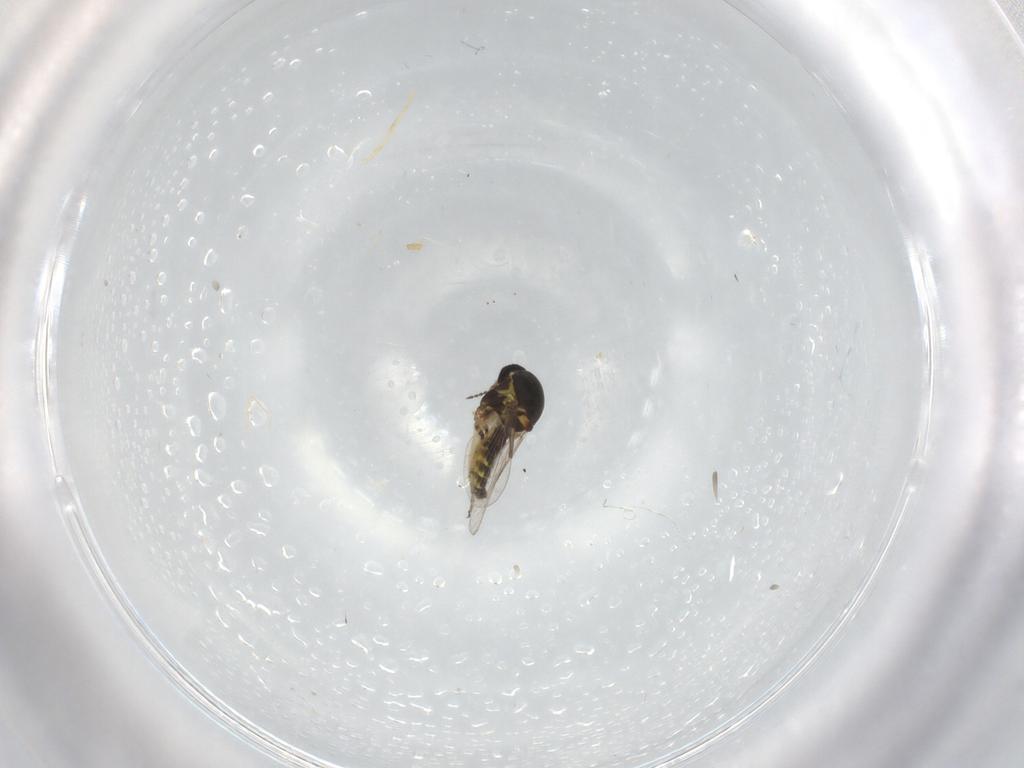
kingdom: Animalia
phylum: Arthropoda
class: Insecta
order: Diptera
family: Ceratopogonidae
